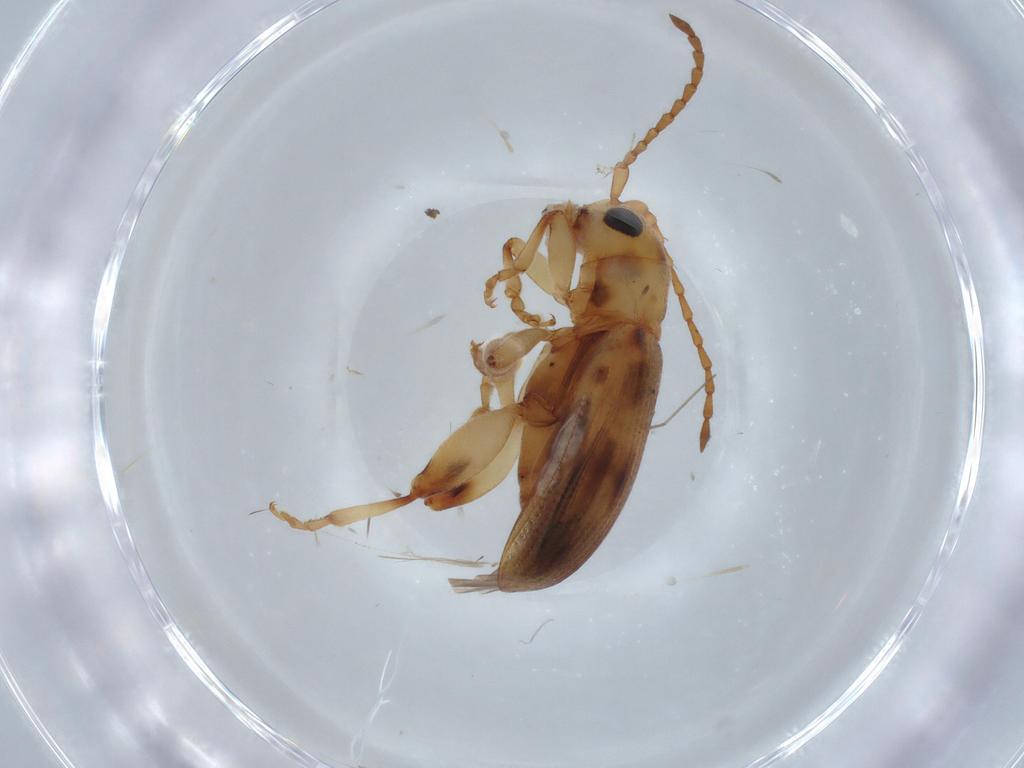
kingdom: Animalia
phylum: Arthropoda
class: Insecta
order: Coleoptera
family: Chrysomelidae
